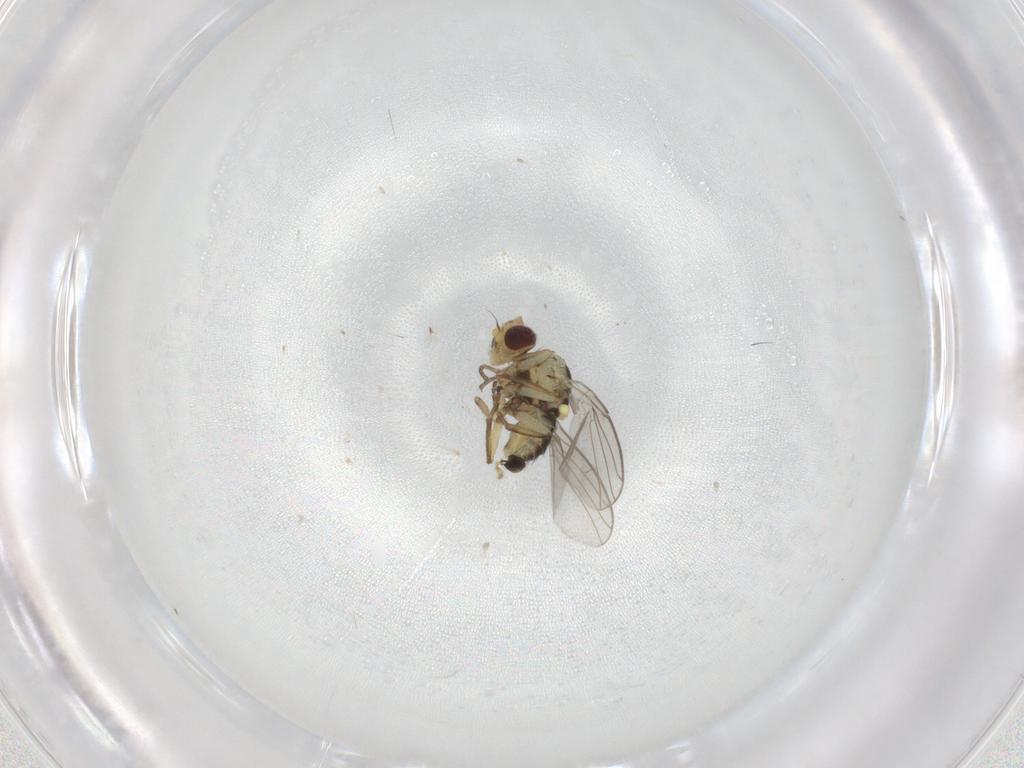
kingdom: Animalia
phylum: Arthropoda
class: Insecta
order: Diptera
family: Agromyzidae
